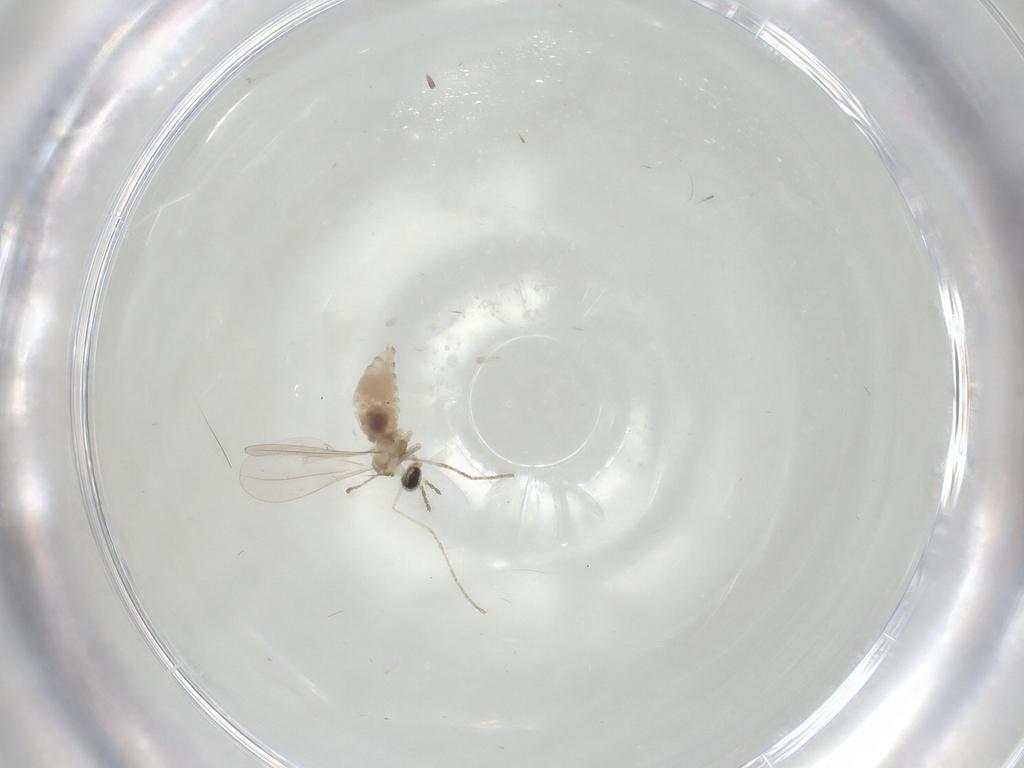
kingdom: Animalia
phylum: Arthropoda
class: Insecta
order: Diptera
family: Cecidomyiidae
